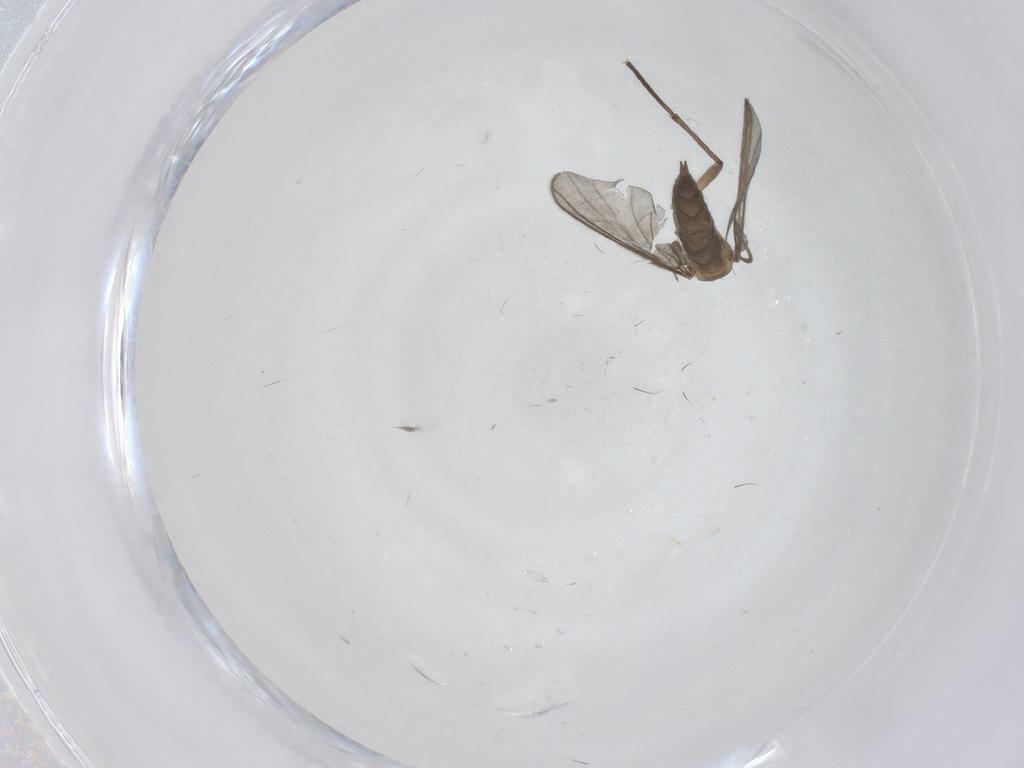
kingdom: Animalia
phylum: Arthropoda
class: Insecta
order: Diptera
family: Sciaridae
